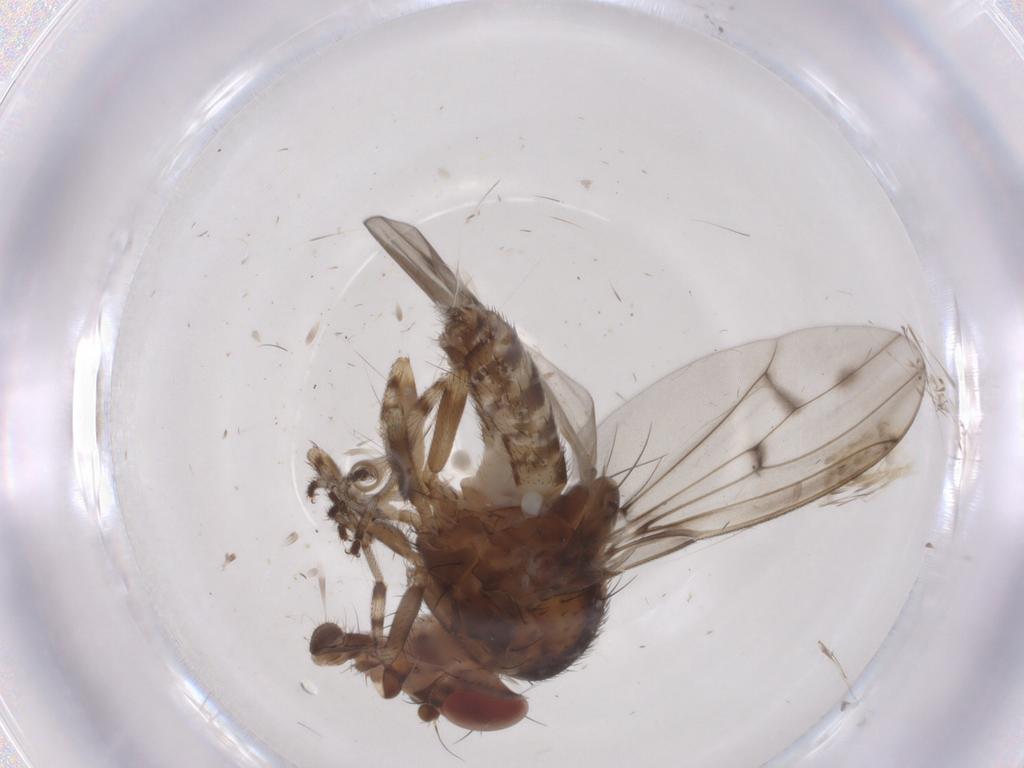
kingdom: Animalia
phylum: Arthropoda
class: Insecta
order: Diptera
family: Drosophilidae
